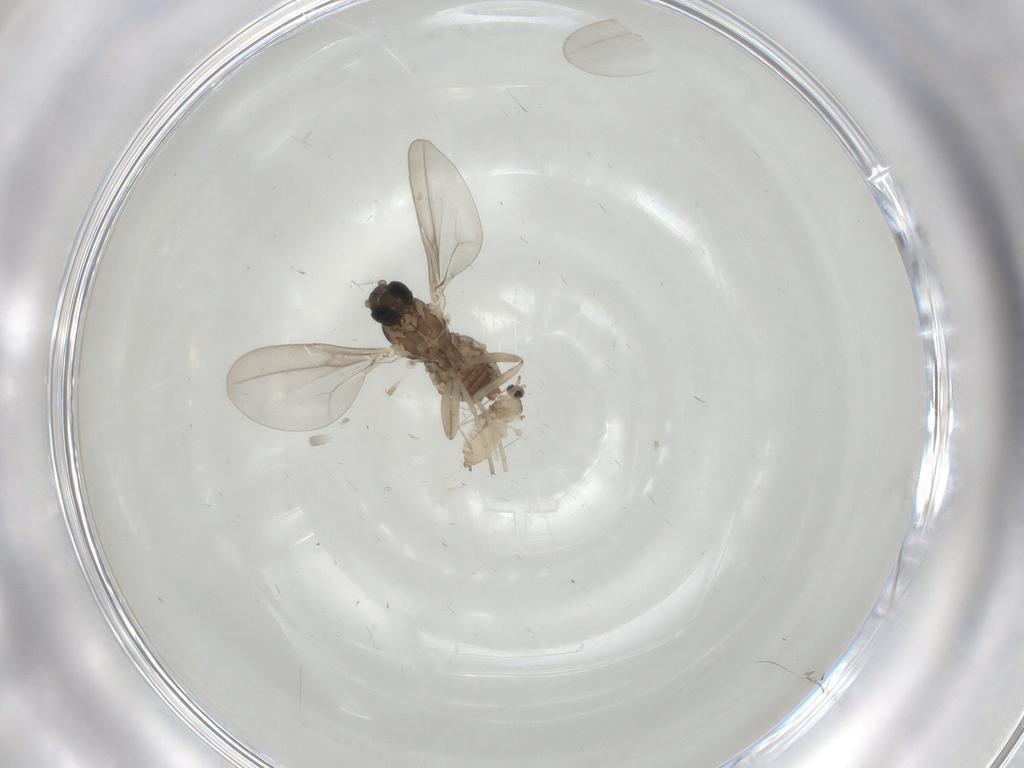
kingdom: Animalia
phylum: Arthropoda
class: Insecta
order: Diptera
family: Cecidomyiidae
